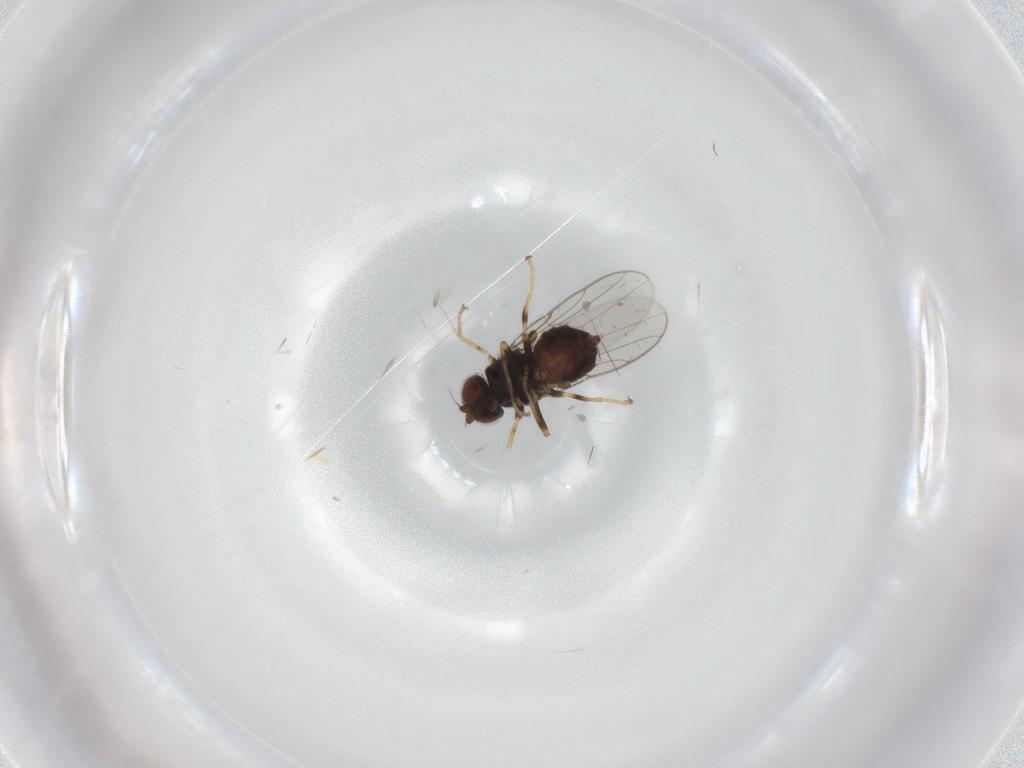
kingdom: Animalia
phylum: Arthropoda
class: Insecta
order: Diptera
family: Chloropidae
